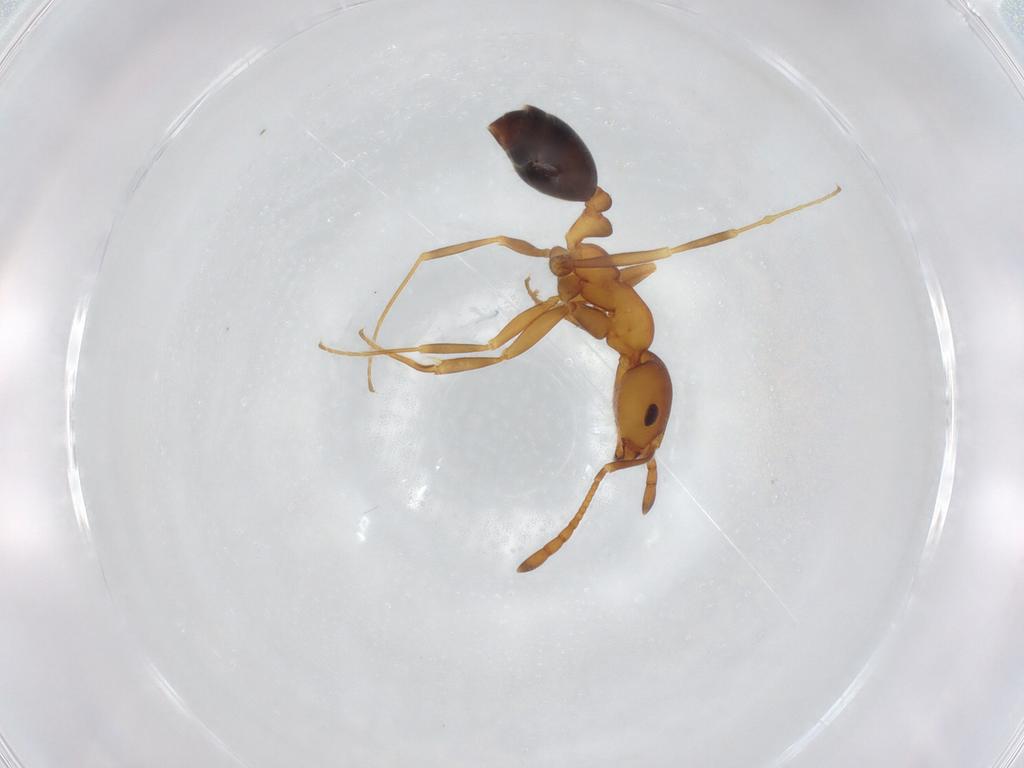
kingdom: Animalia
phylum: Arthropoda
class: Insecta
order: Hymenoptera
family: Formicidae
